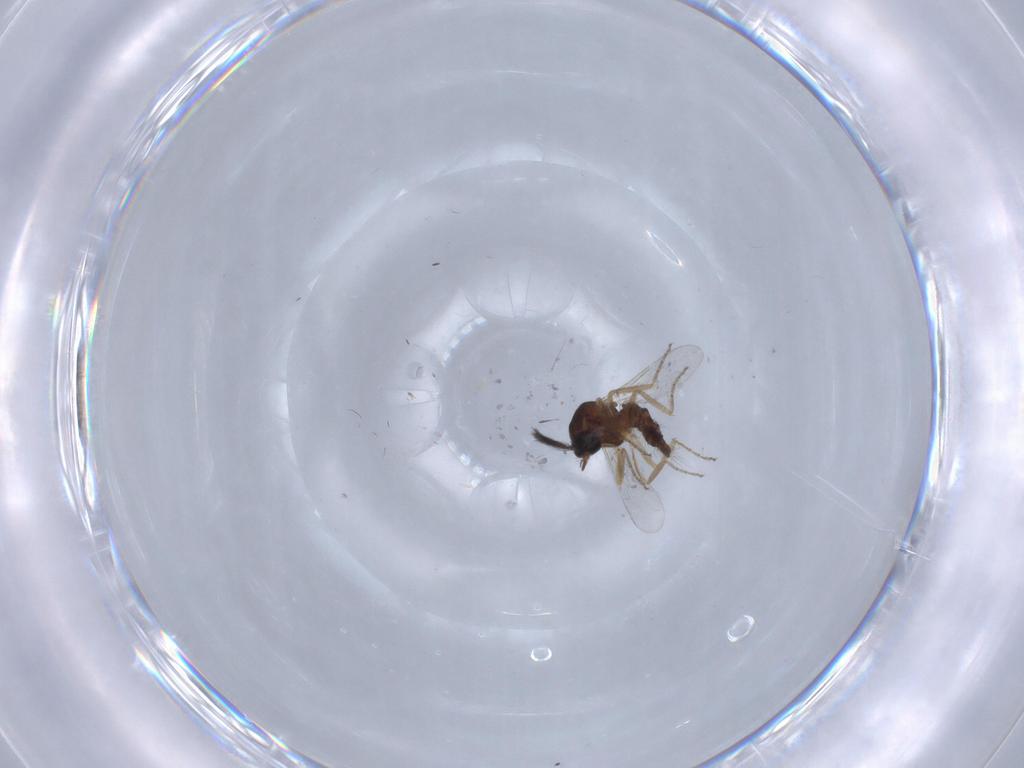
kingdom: Animalia
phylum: Arthropoda
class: Insecta
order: Diptera
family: Ceratopogonidae
